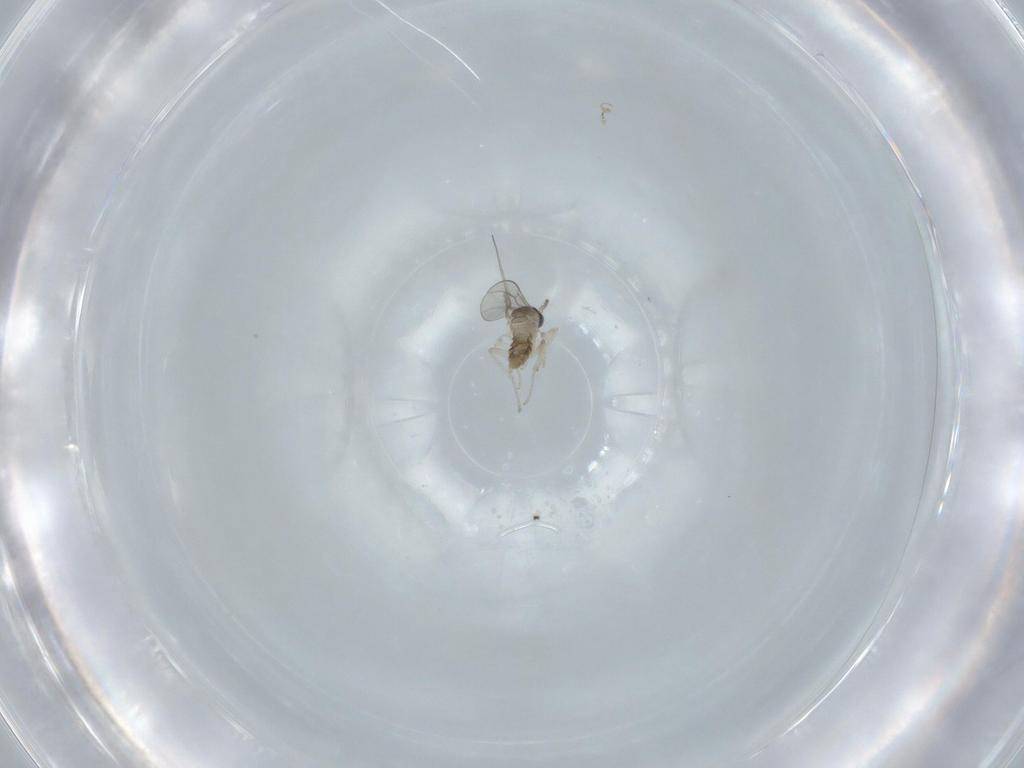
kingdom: Animalia
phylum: Arthropoda
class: Insecta
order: Diptera
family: Cecidomyiidae
